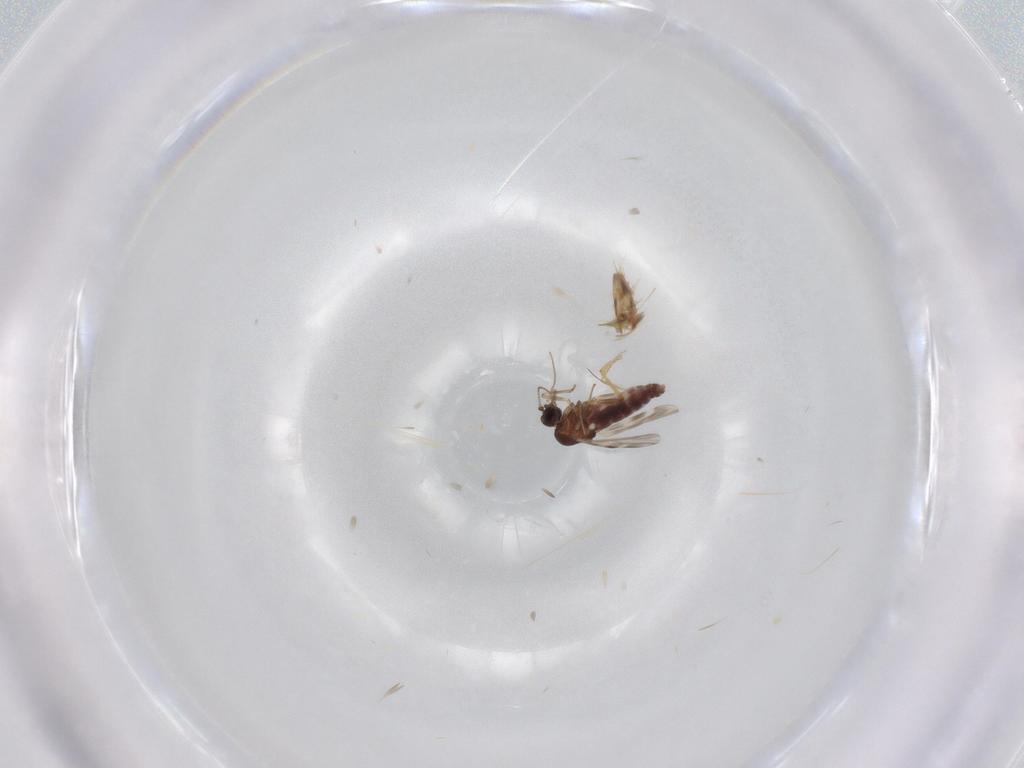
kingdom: Animalia
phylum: Arthropoda
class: Insecta
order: Diptera
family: Ceratopogonidae
